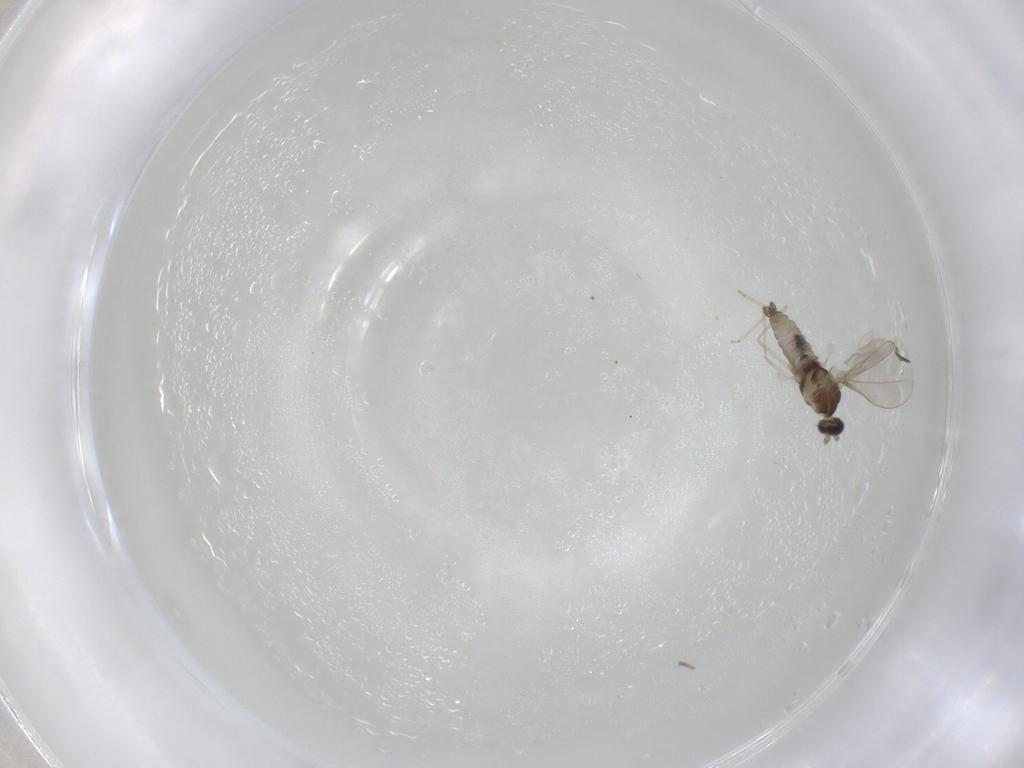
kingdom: Animalia
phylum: Arthropoda
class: Insecta
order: Diptera
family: Cecidomyiidae
